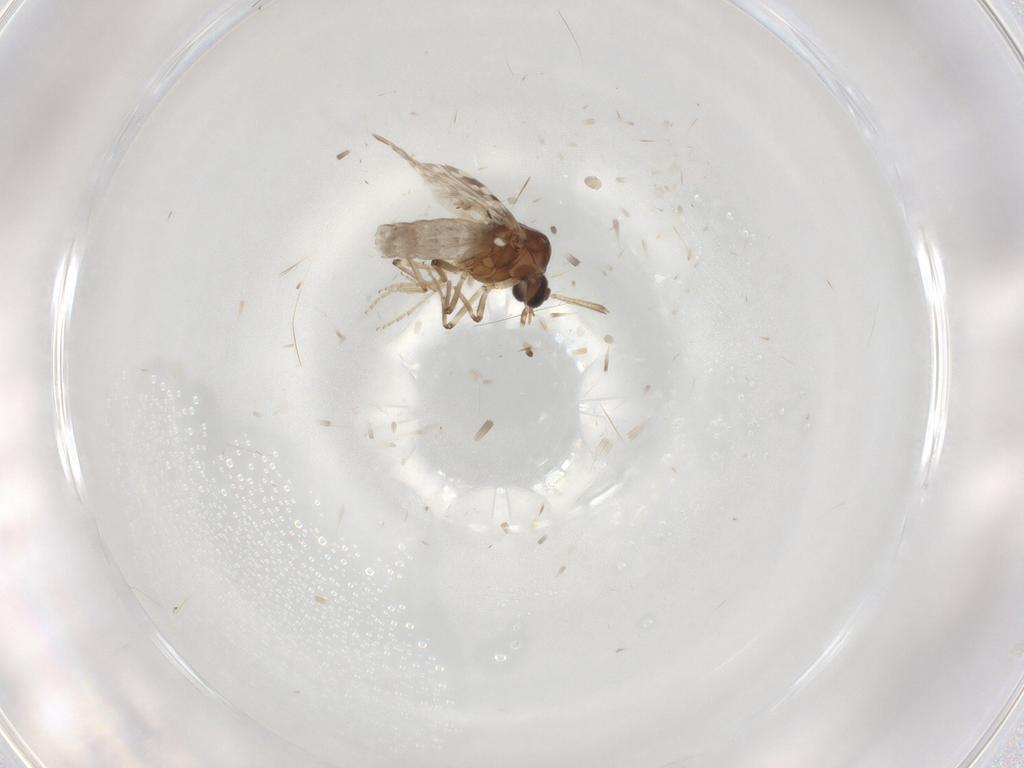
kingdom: Animalia
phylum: Arthropoda
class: Insecta
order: Diptera
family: Ceratopogonidae
